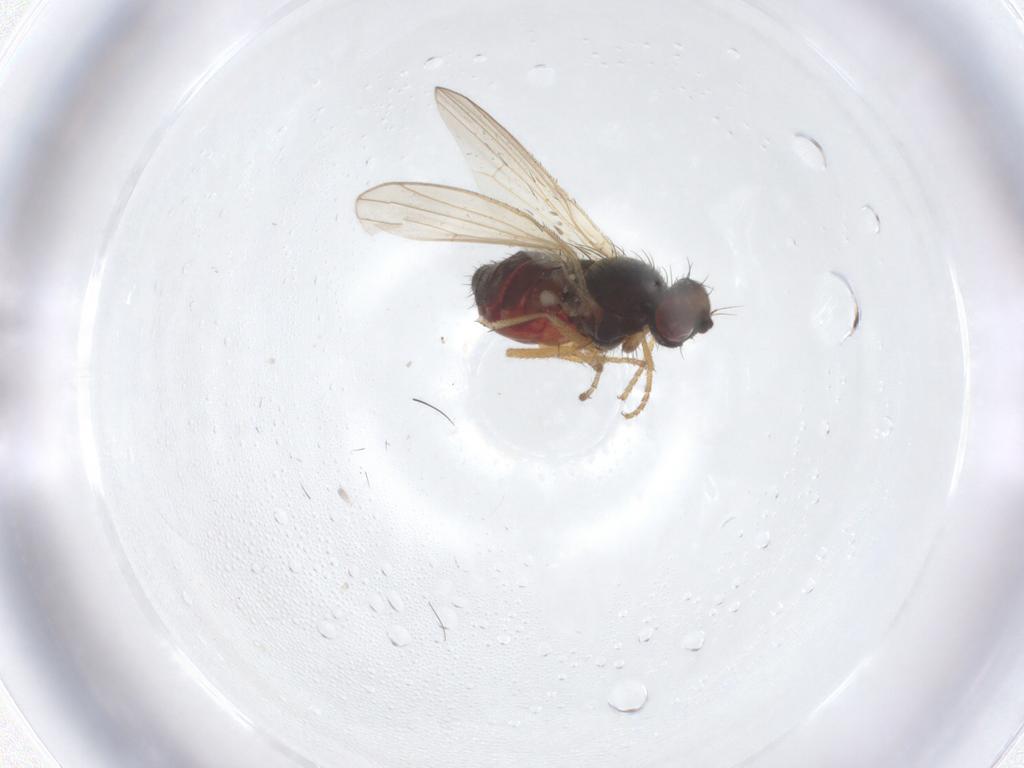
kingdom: Animalia
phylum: Arthropoda
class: Insecta
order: Diptera
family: Heleomyzidae
